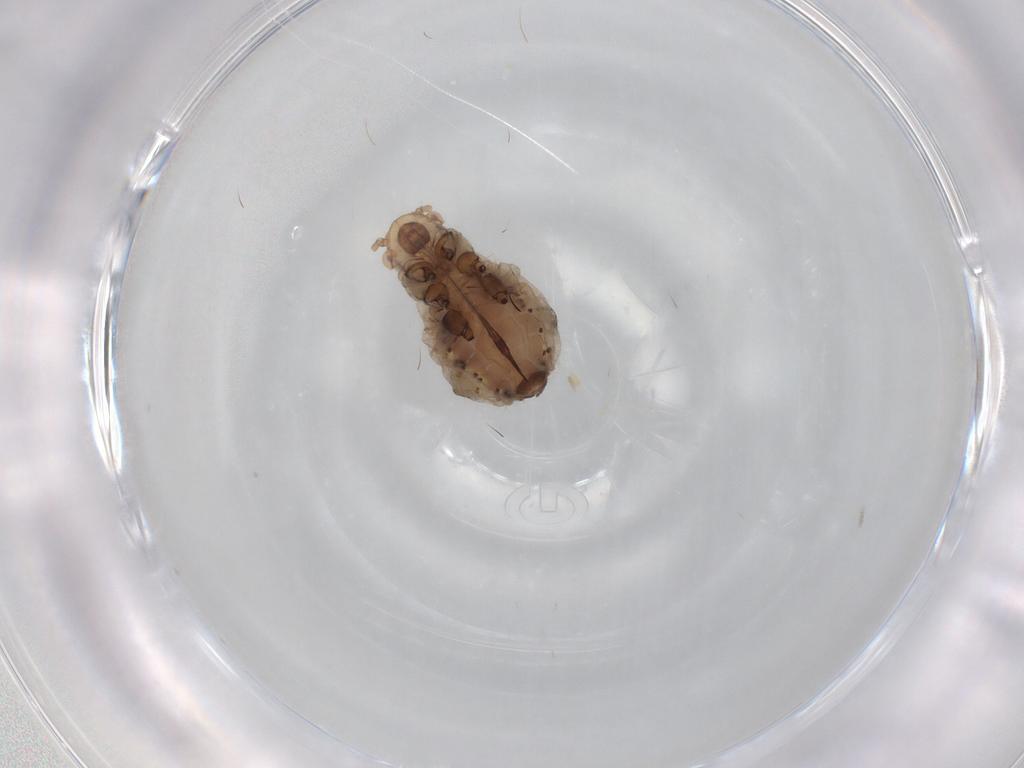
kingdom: Animalia
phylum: Arthropoda
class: Insecta
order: Hemiptera
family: Aphididae
